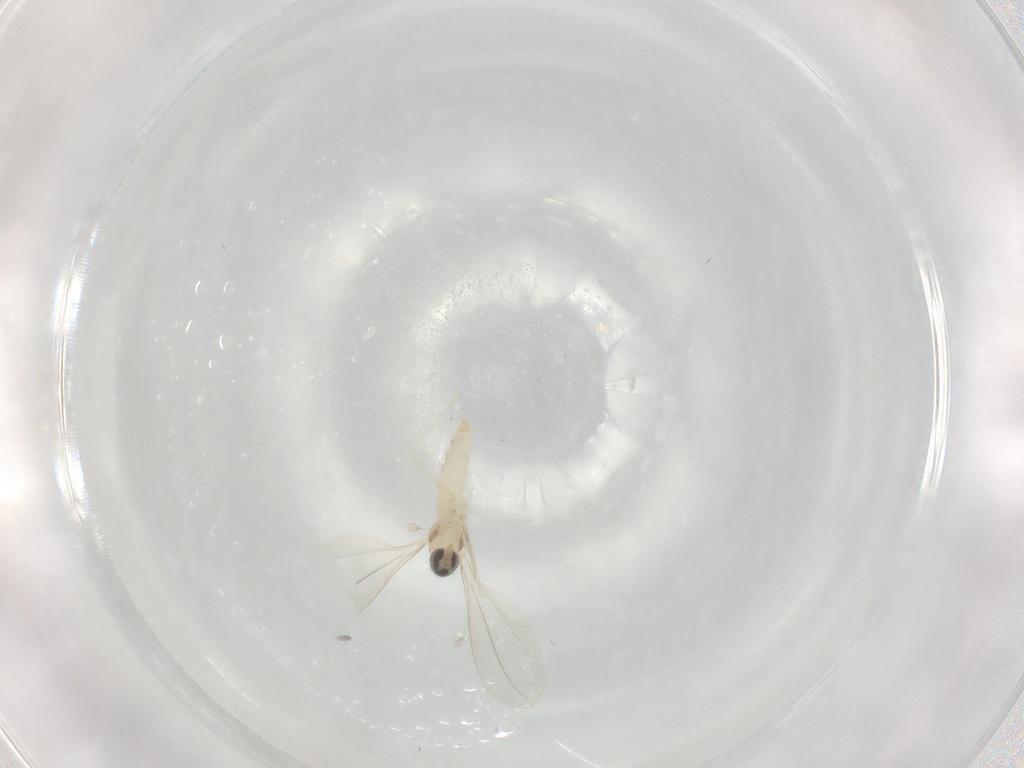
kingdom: Animalia
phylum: Arthropoda
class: Insecta
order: Diptera
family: Cecidomyiidae
